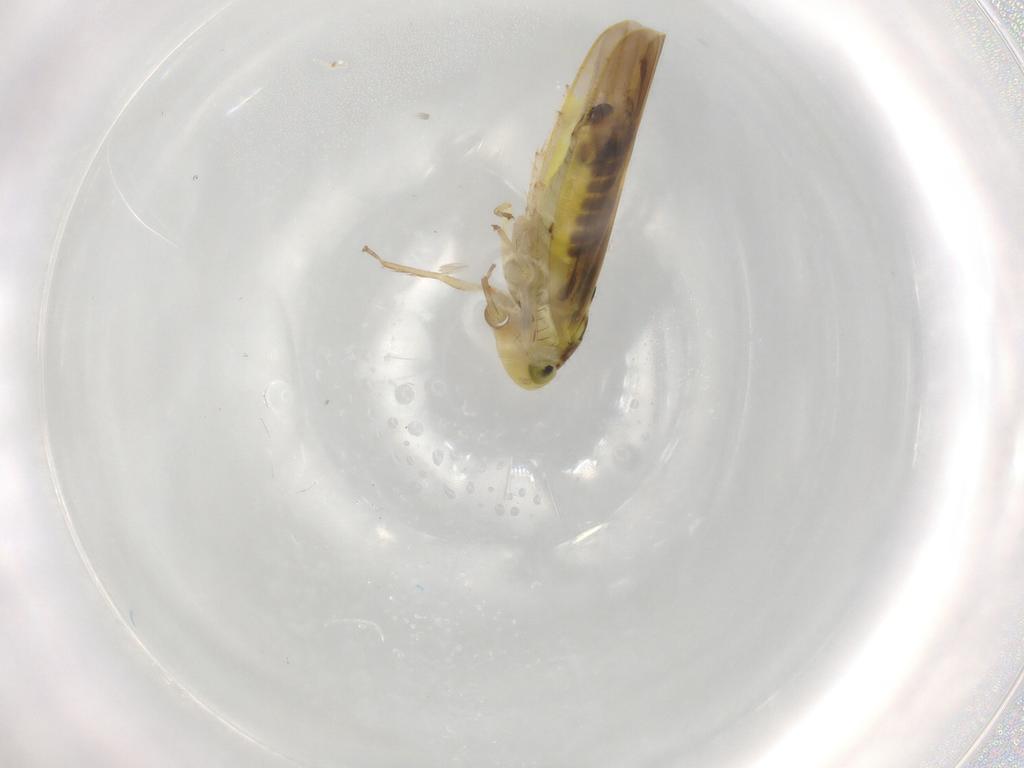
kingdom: Animalia
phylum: Arthropoda
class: Insecta
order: Hemiptera
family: Cicadellidae
